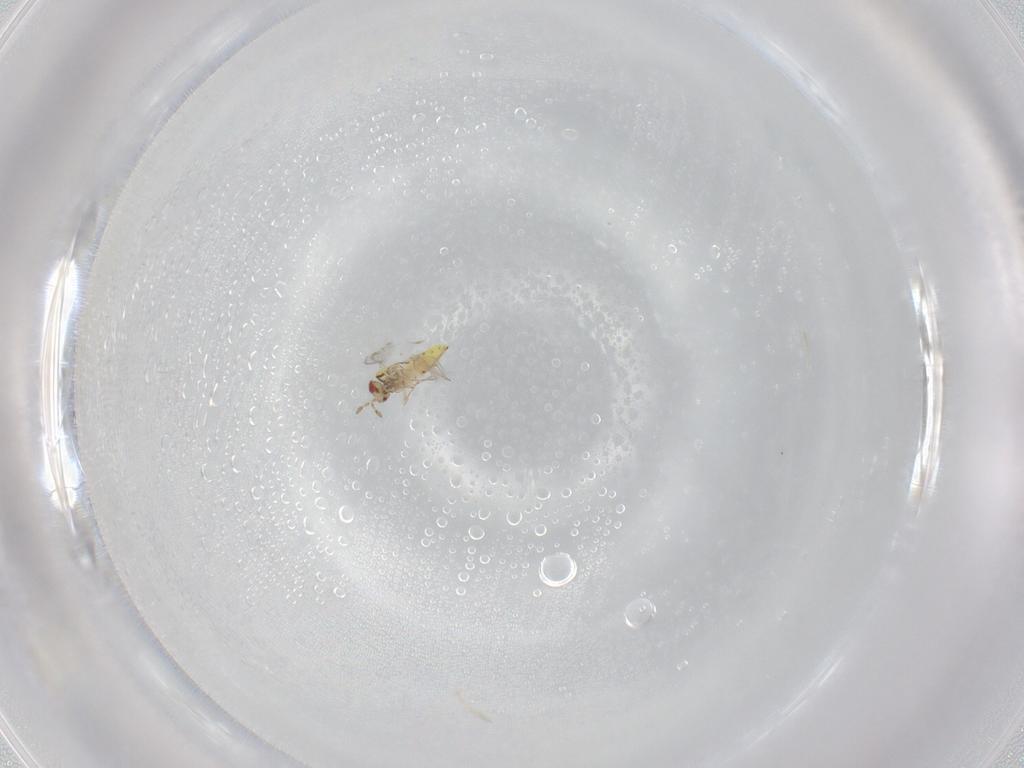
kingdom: Animalia
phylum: Arthropoda
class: Insecta
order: Hymenoptera
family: Trichogrammatidae
